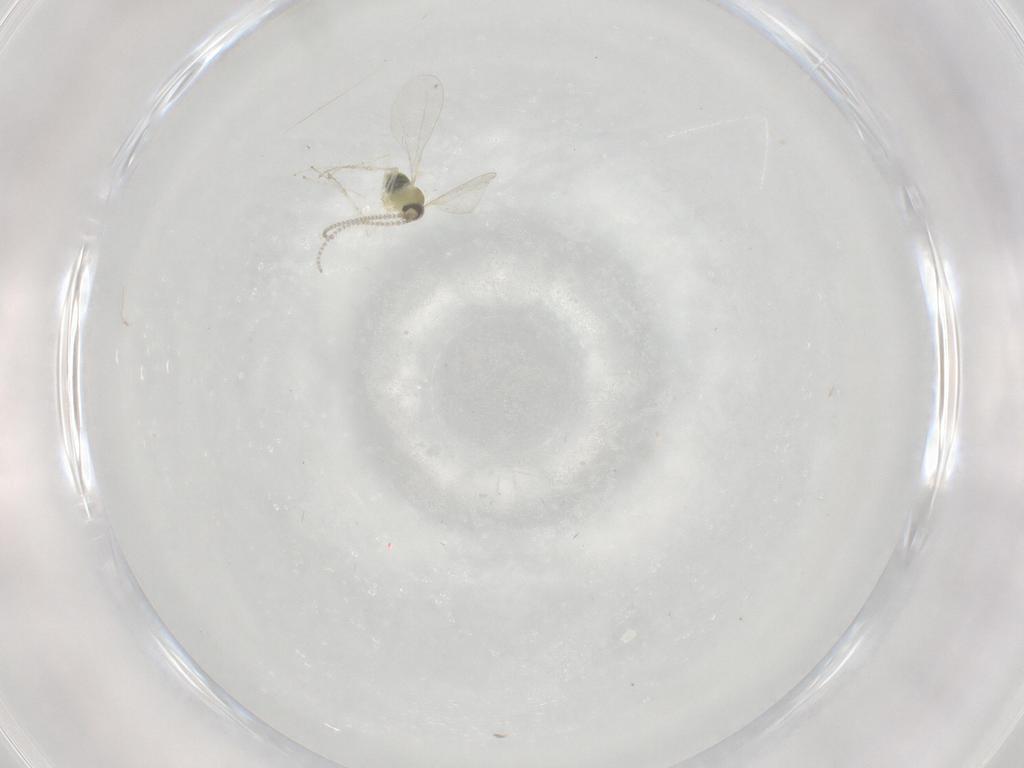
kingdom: Animalia
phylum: Arthropoda
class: Insecta
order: Diptera
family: Cecidomyiidae
